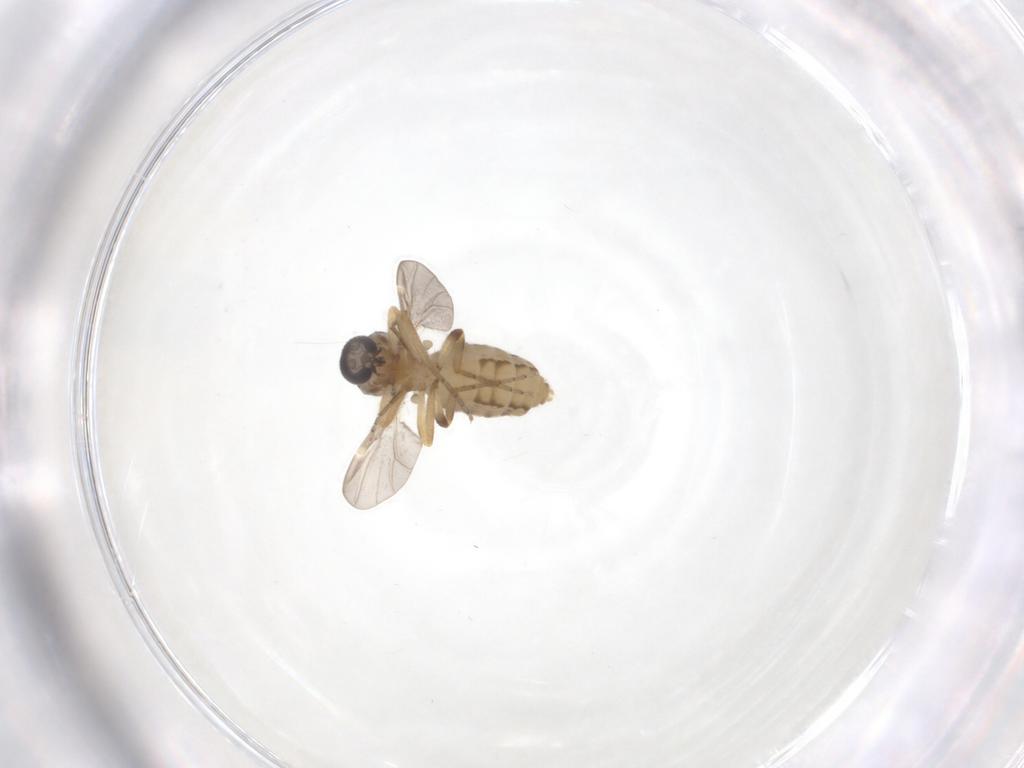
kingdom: Animalia
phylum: Arthropoda
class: Insecta
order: Diptera
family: Ceratopogonidae
